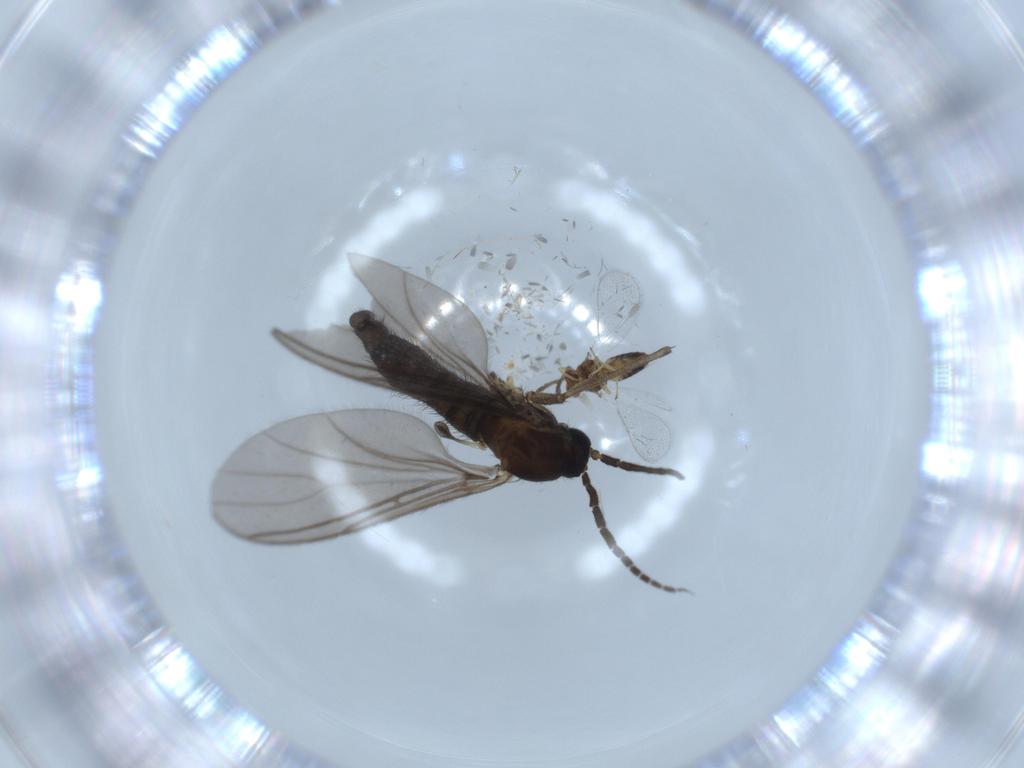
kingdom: Animalia
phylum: Arthropoda
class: Insecta
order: Diptera
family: Sciaridae
